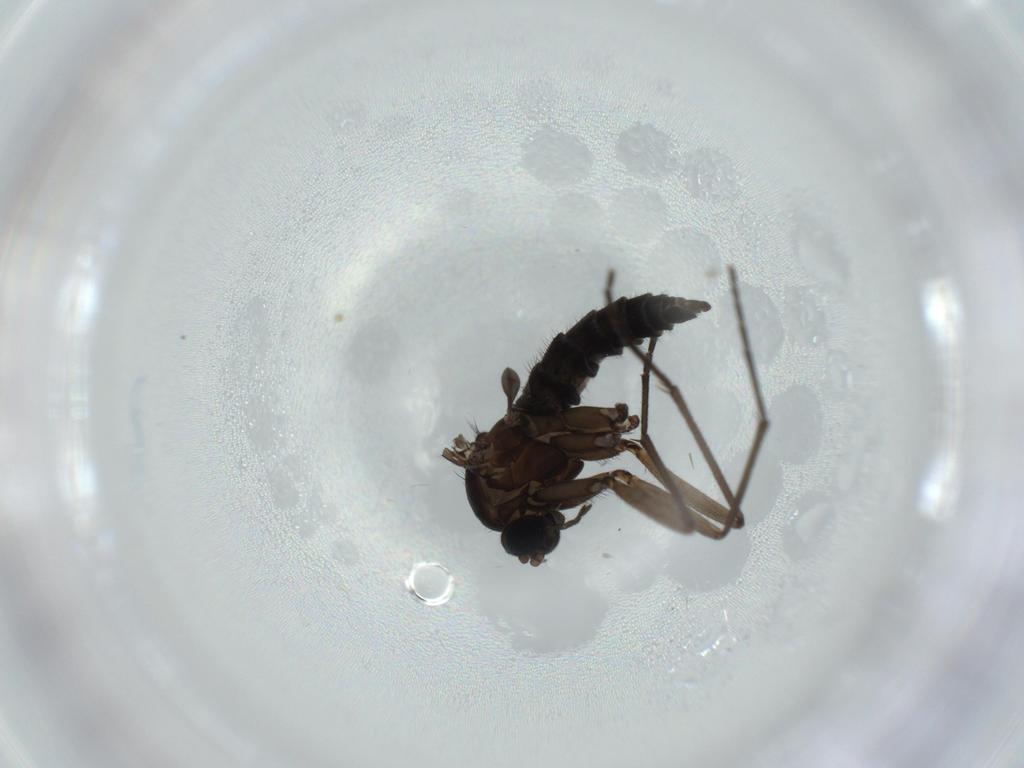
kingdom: Animalia
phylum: Arthropoda
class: Insecta
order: Diptera
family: Sciaridae
